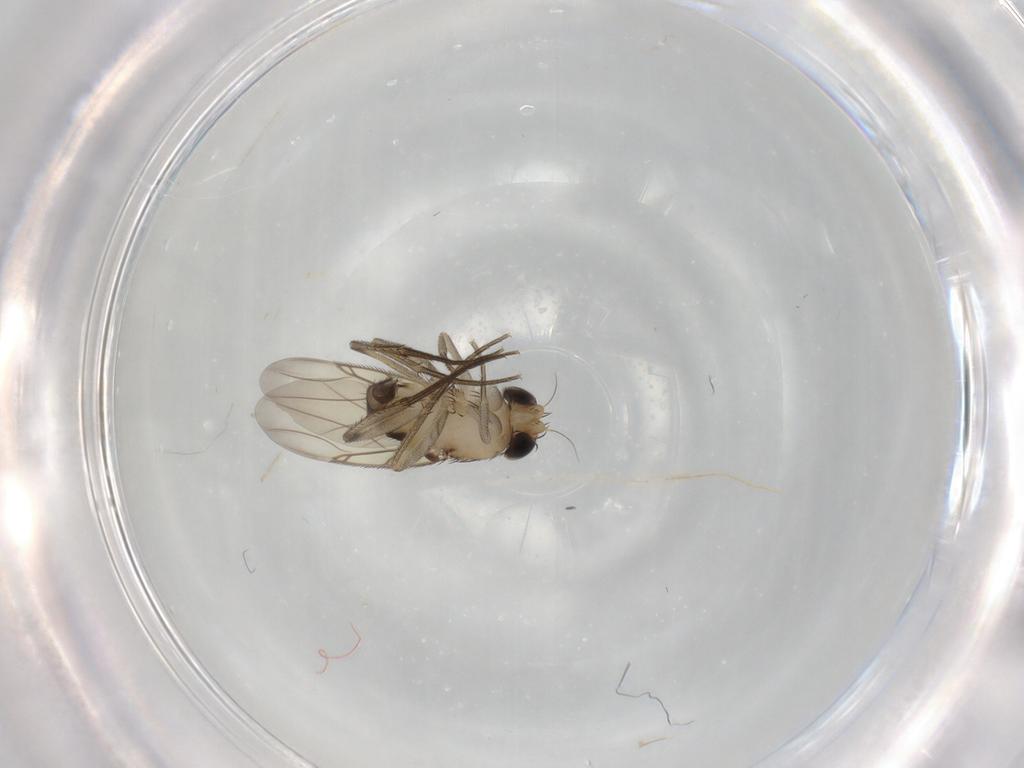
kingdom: Animalia
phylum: Arthropoda
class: Insecta
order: Diptera
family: Phoridae
